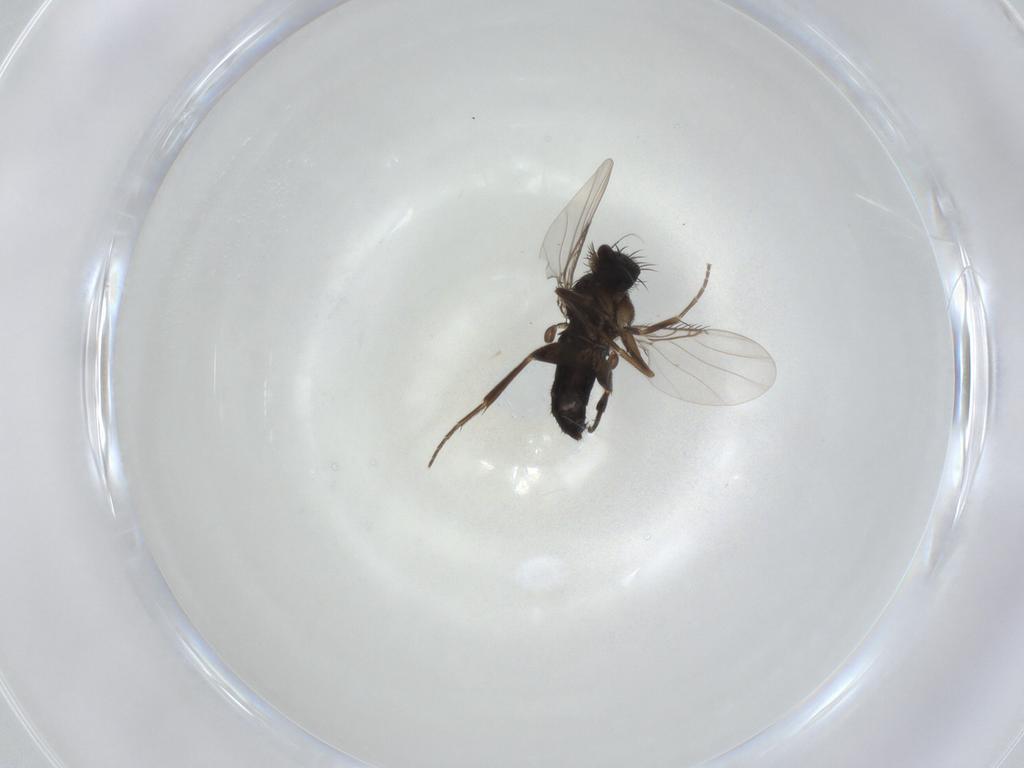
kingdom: Animalia
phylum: Arthropoda
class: Insecta
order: Diptera
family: Phoridae
